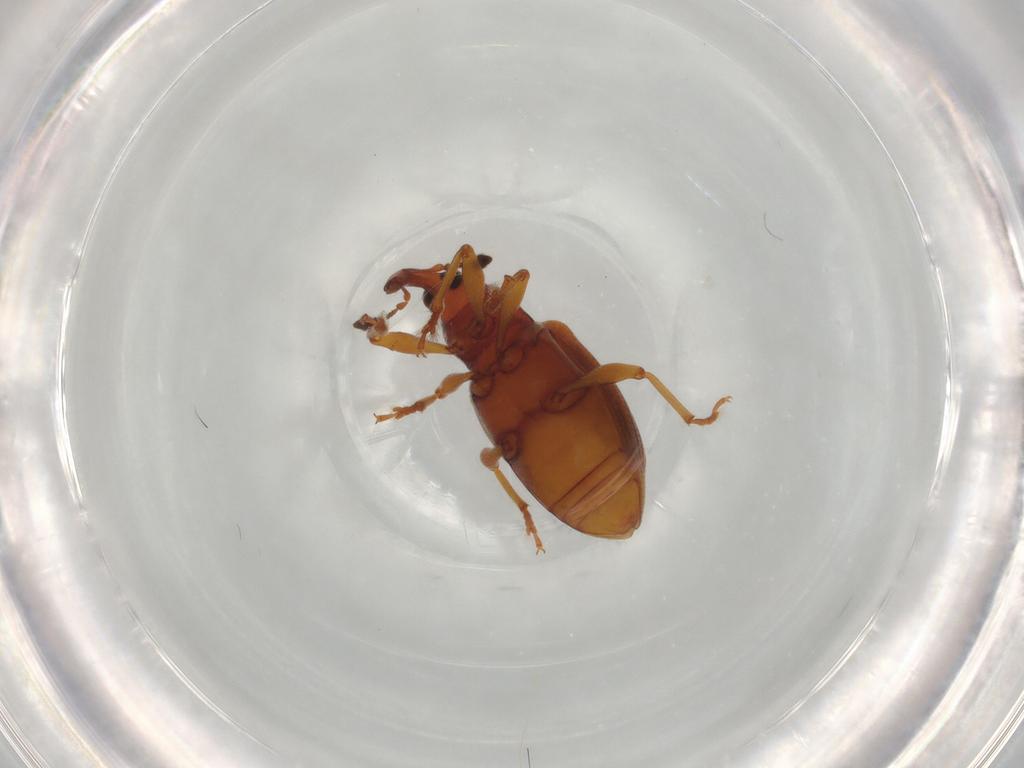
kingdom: Animalia
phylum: Arthropoda
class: Insecta
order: Coleoptera
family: Curculionidae
